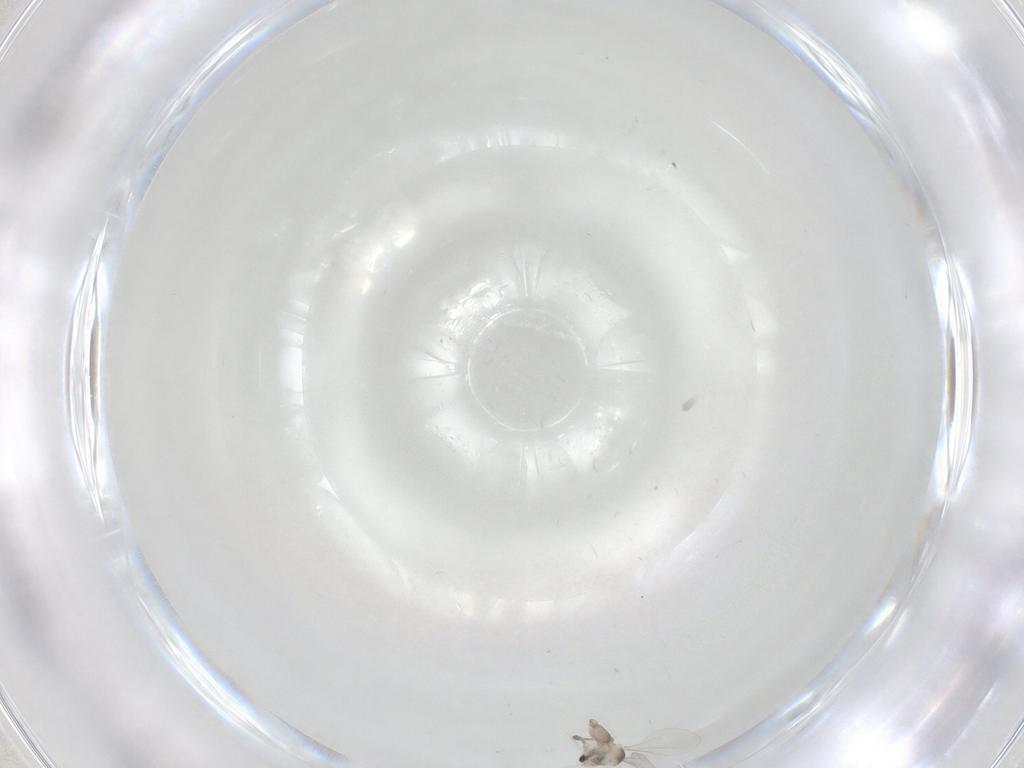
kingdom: Animalia
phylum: Arthropoda
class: Insecta
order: Diptera
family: Cecidomyiidae
